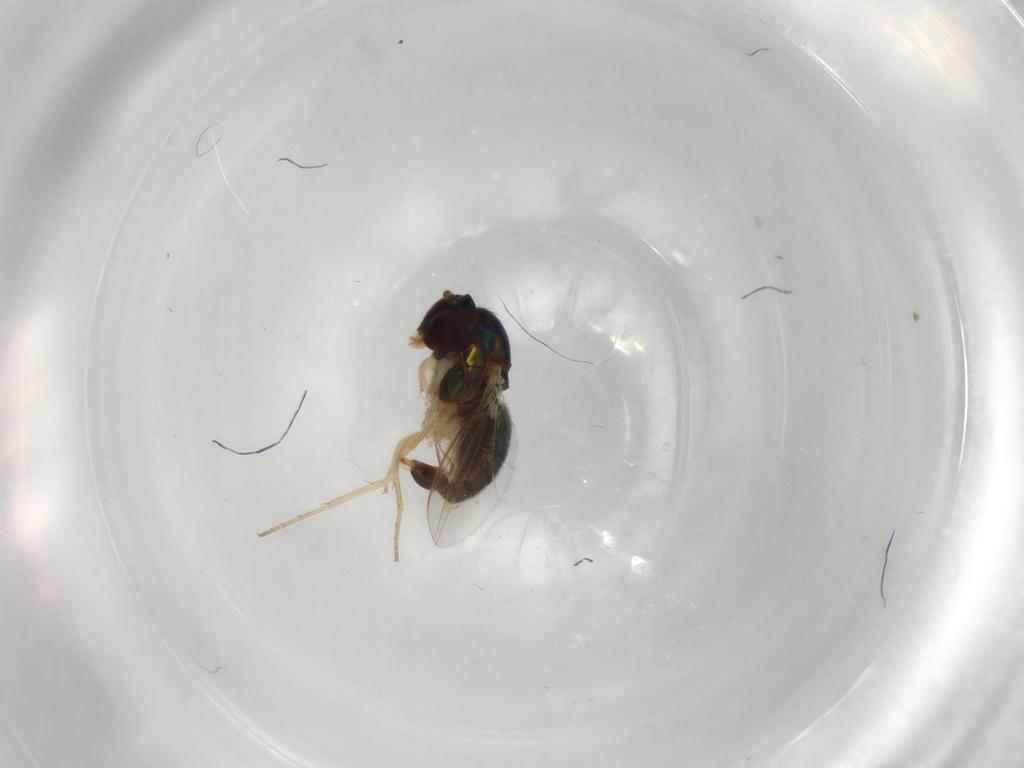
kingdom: Animalia
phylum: Arthropoda
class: Insecta
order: Diptera
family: Dolichopodidae
